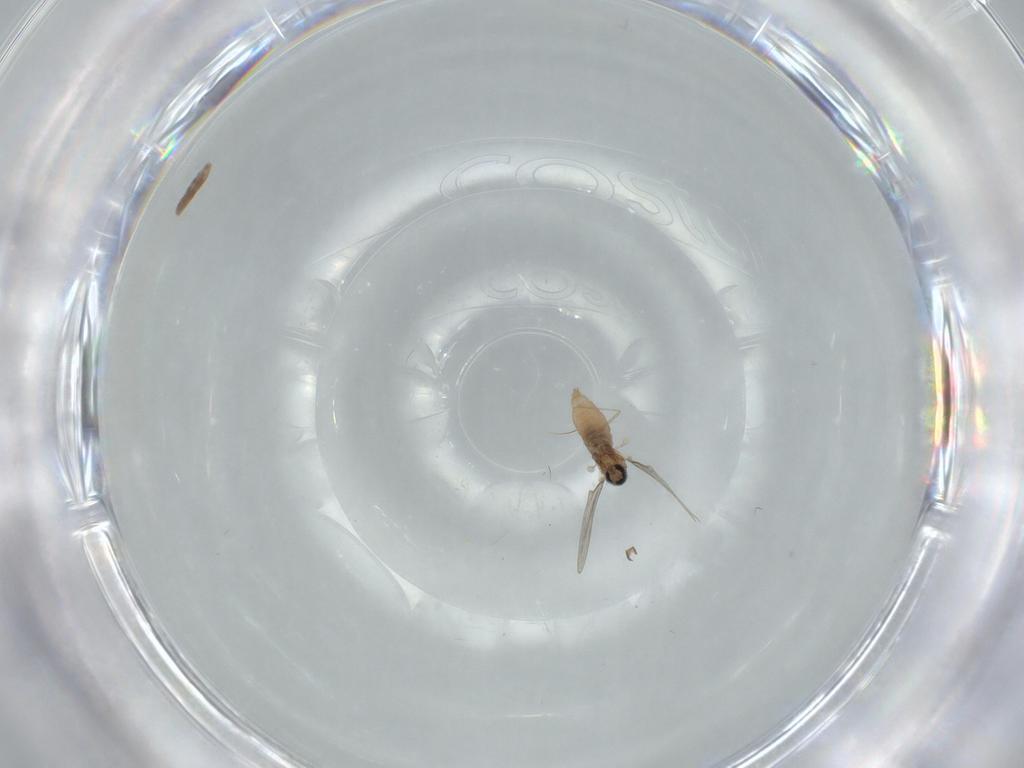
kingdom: Animalia
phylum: Arthropoda
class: Insecta
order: Diptera
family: Sciaridae
